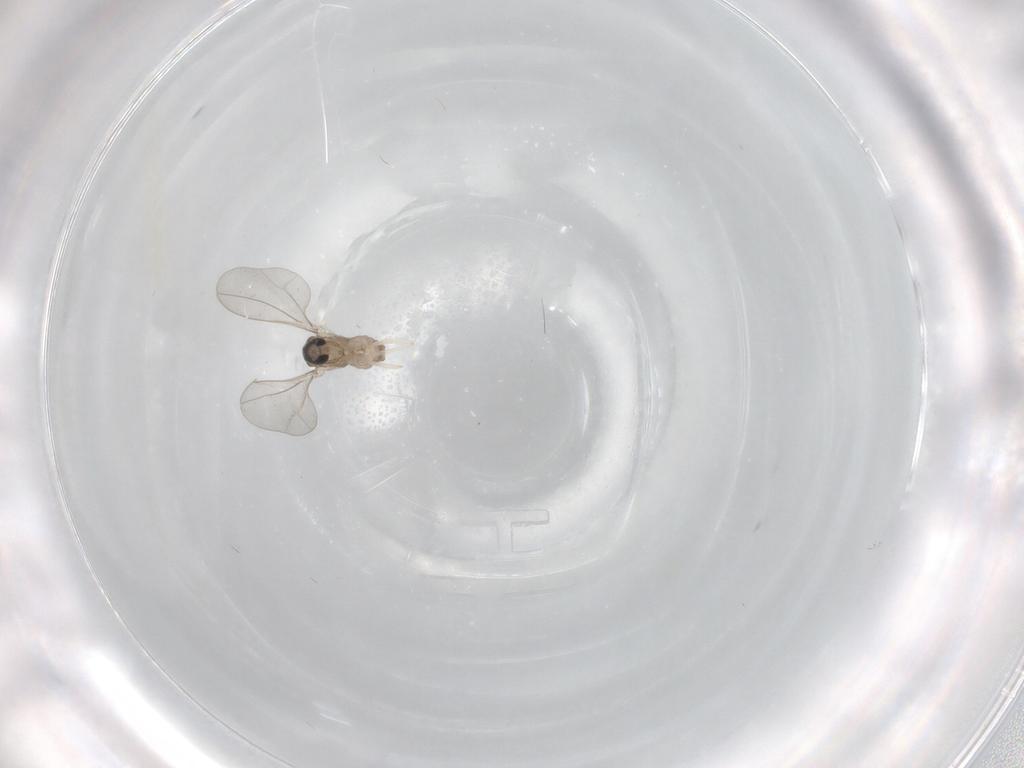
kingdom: Animalia
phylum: Arthropoda
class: Insecta
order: Diptera
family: Cecidomyiidae
